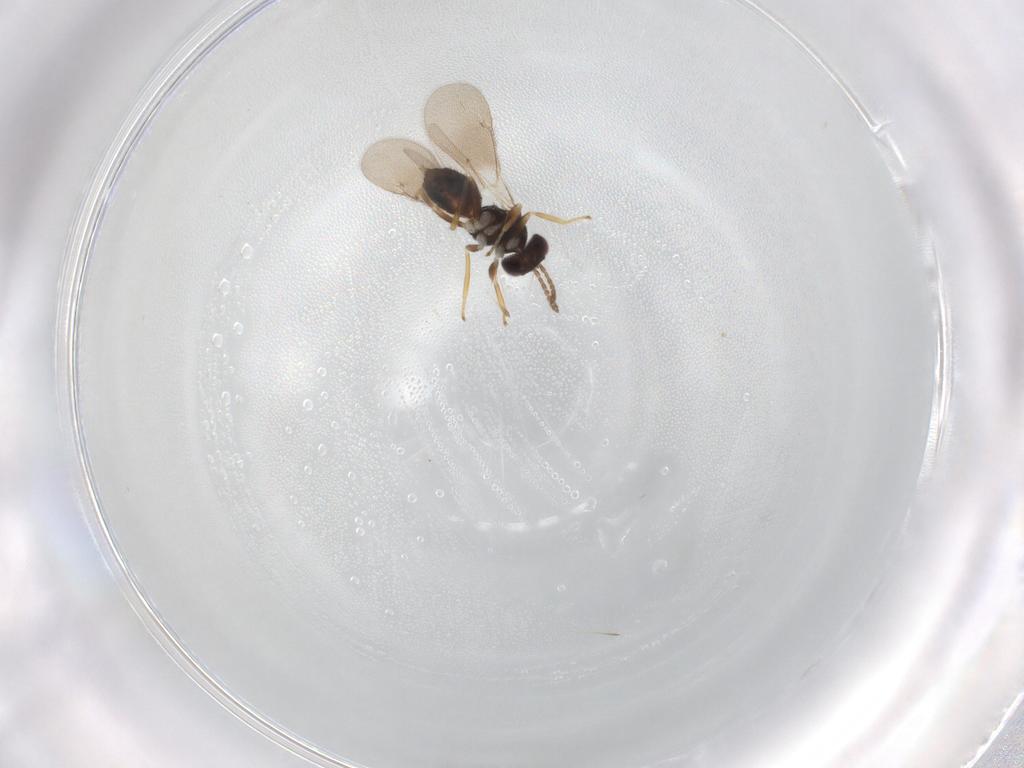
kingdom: Animalia
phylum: Arthropoda
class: Insecta
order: Hymenoptera
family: Eulophidae
